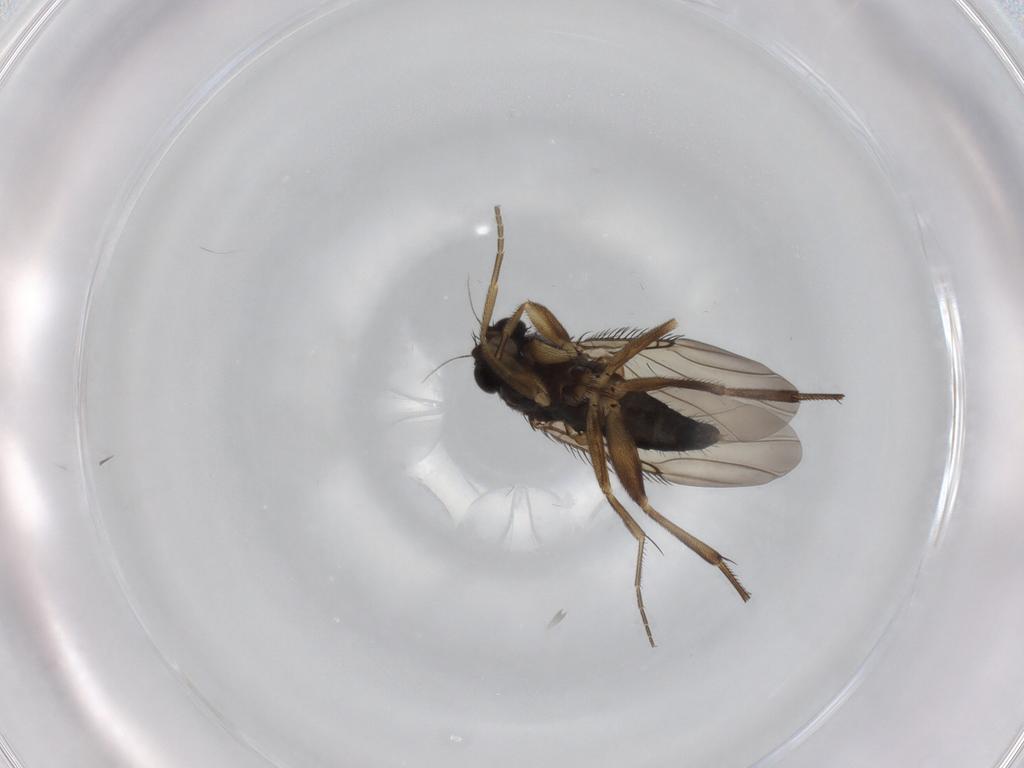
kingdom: Animalia
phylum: Arthropoda
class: Insecta
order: Diptera
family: Phoridae
